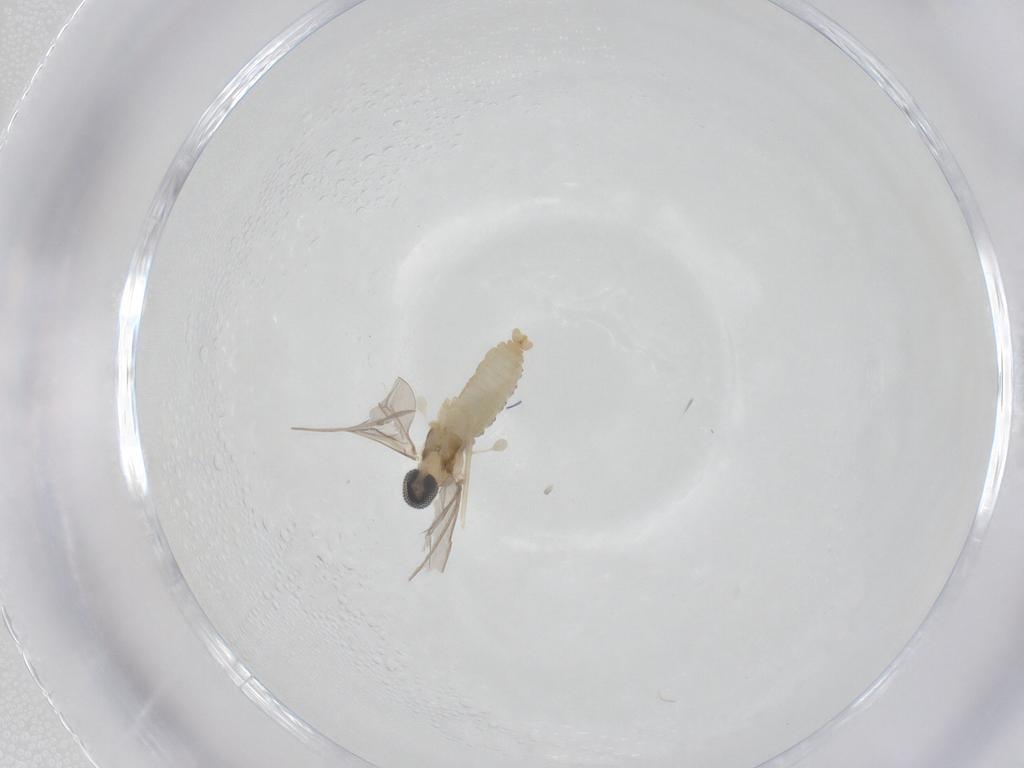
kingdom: Animalia
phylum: Arthropoda
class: Insecta
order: Diptera
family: Cecidomyiidae
